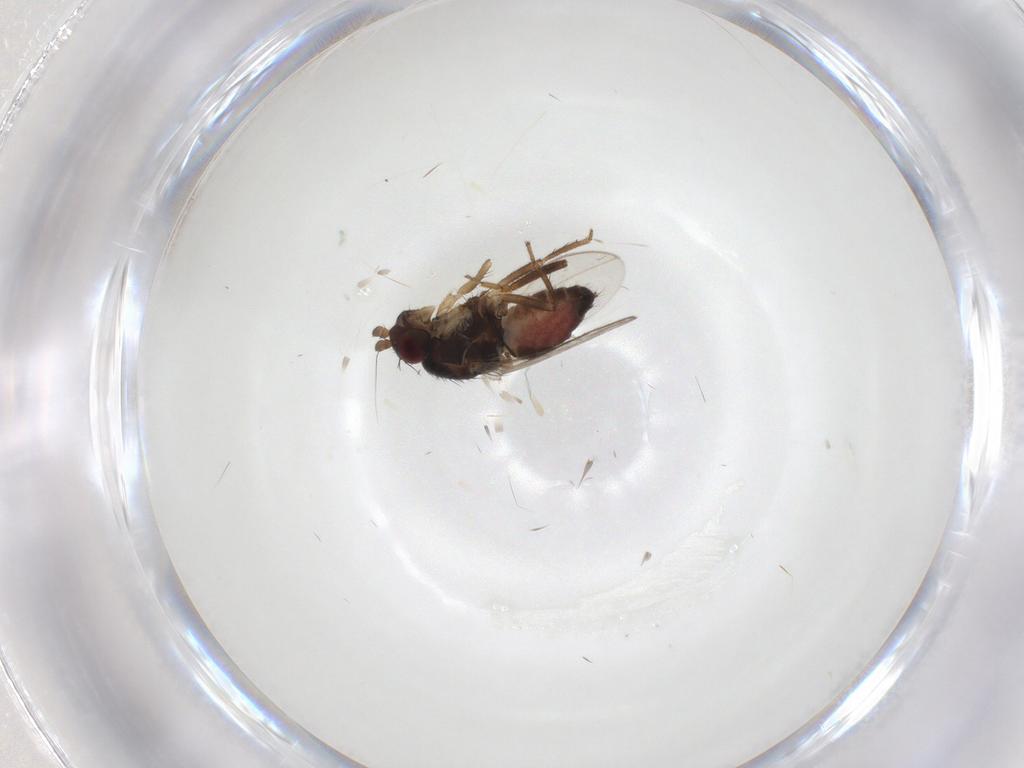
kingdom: Animalia
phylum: Arthropoda
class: Insecta
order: Diptera
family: Sphaeroceridae
